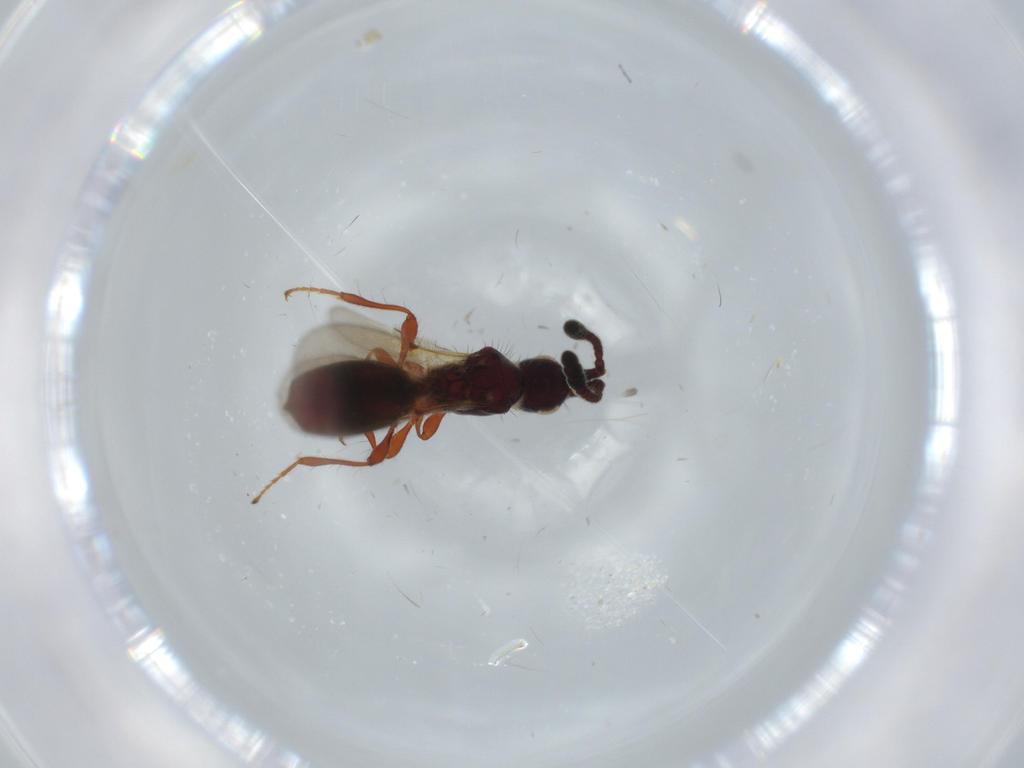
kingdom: Animalia
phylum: Arthropoda
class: Insecta
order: Hymenoptera
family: Diapriidae
